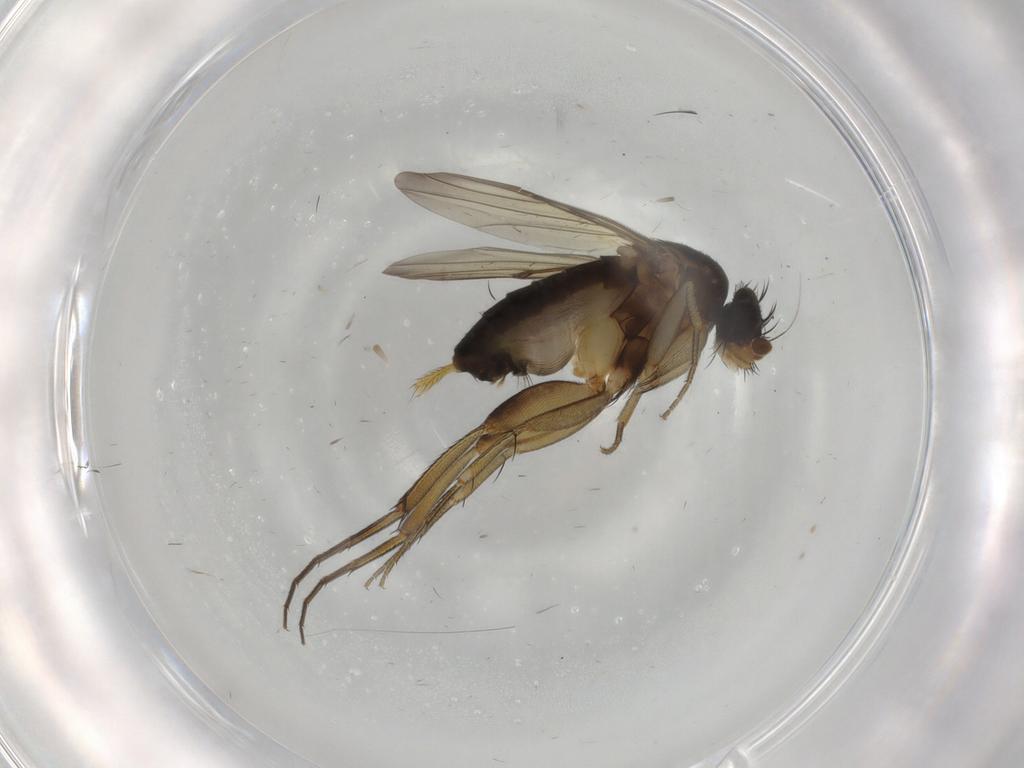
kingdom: Animalia
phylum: Arthropoda
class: Insecta
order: Diptera
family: Phoridae
